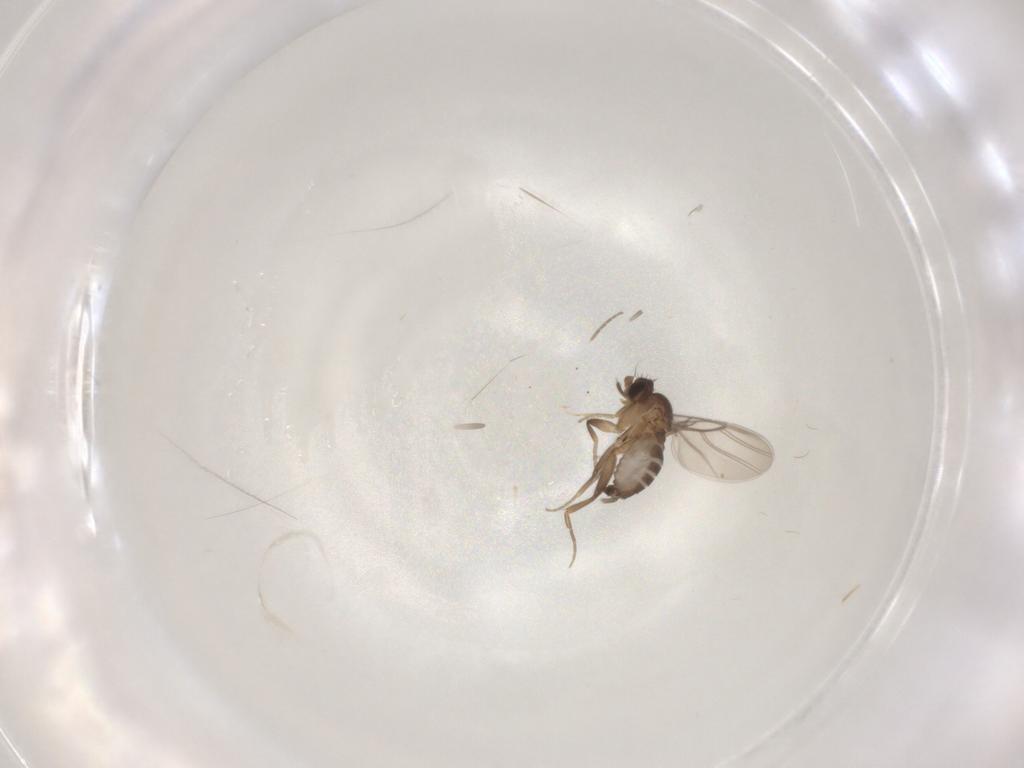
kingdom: Animalia
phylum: Arthropoda
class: Insecta
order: Diptera
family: Phoridae
